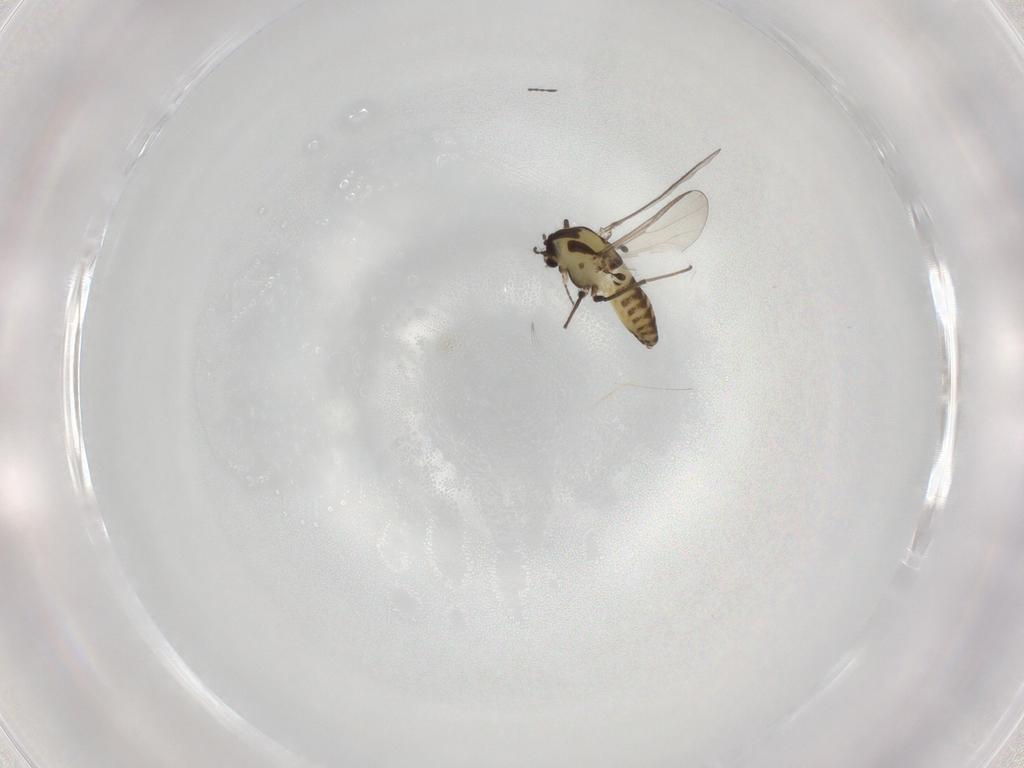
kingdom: Animalia
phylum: Arthropoda
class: Insecta
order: Diptera
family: Chironomidae
